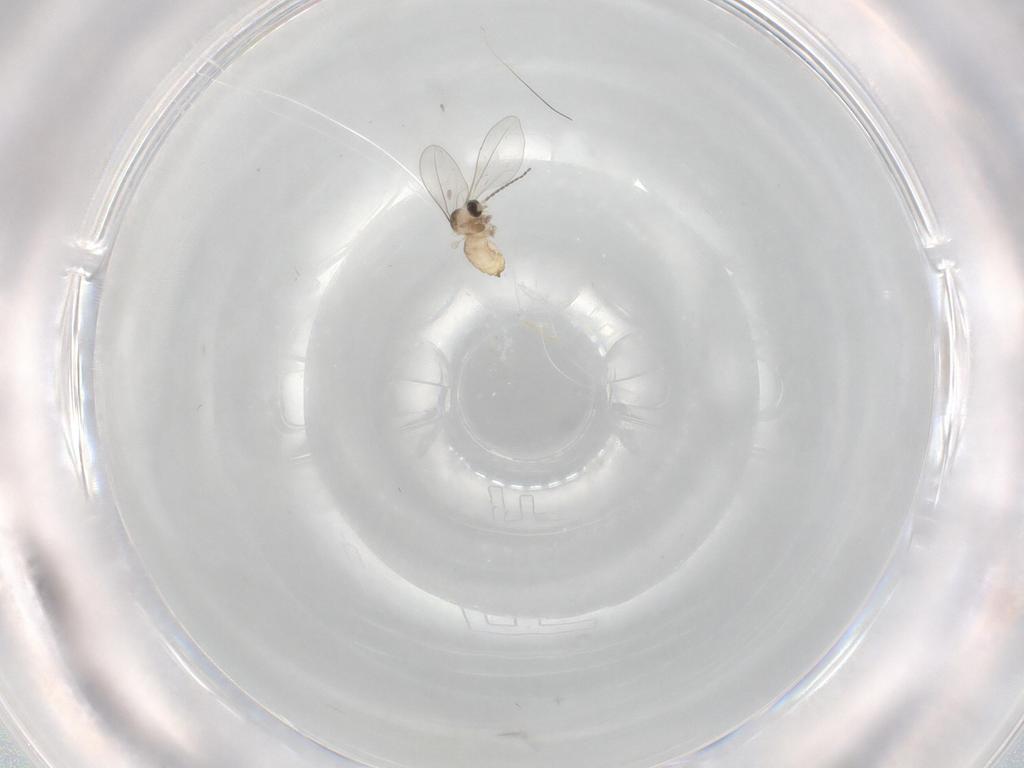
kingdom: Animalia
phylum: Arthropoda
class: Insecta
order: Diptera
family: Cecidomyiidae
